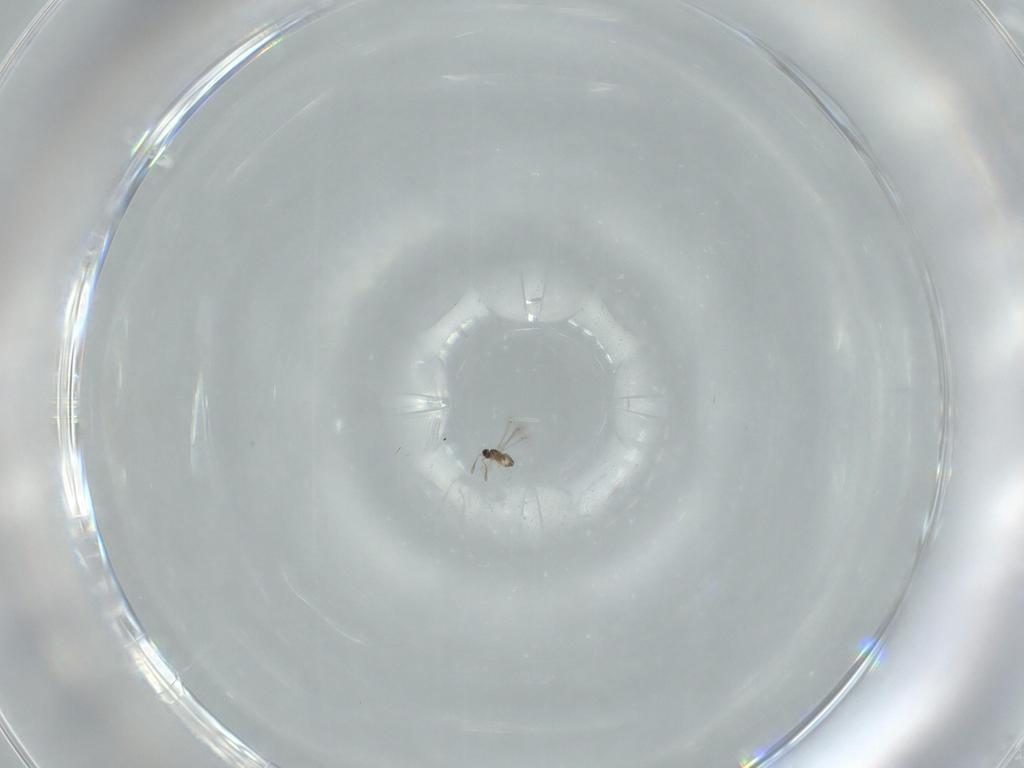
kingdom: Animalia
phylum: Arthropoda
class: Insecta
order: Hymenoptera
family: Mymaridae
